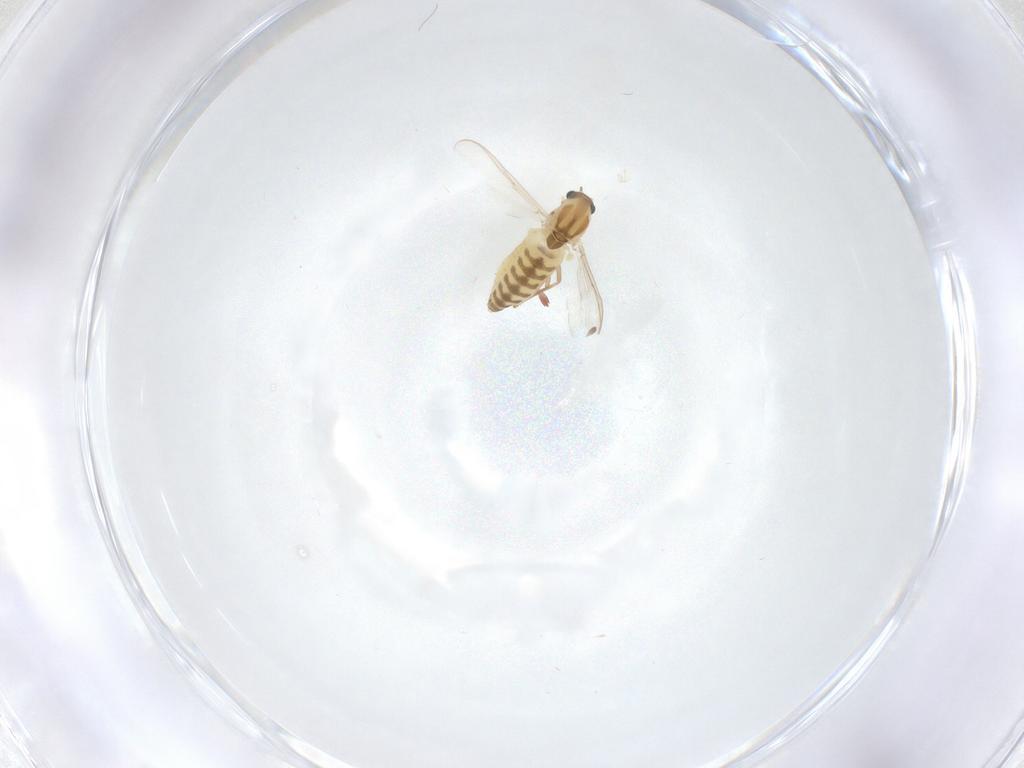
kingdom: Animalia
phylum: Arthropoda
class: Insecta
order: Diptera
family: Chironomidae
